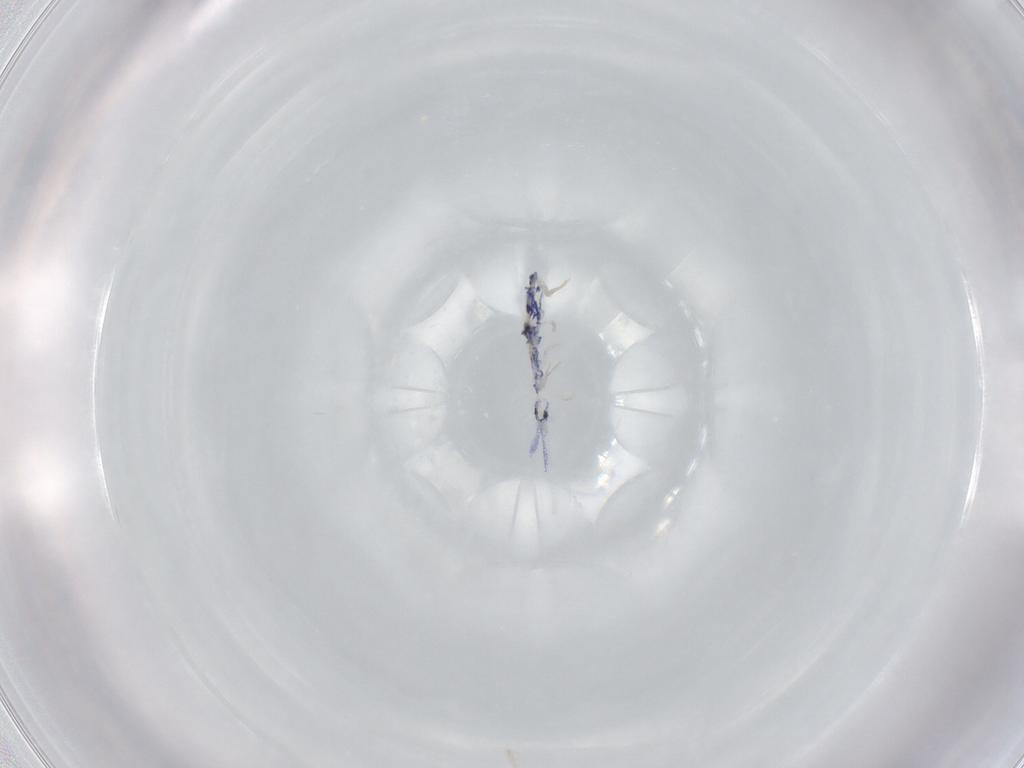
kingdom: Animalia
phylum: Arthropoda
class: Collembola
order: Entomobryomorpha
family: Entomobryidae
